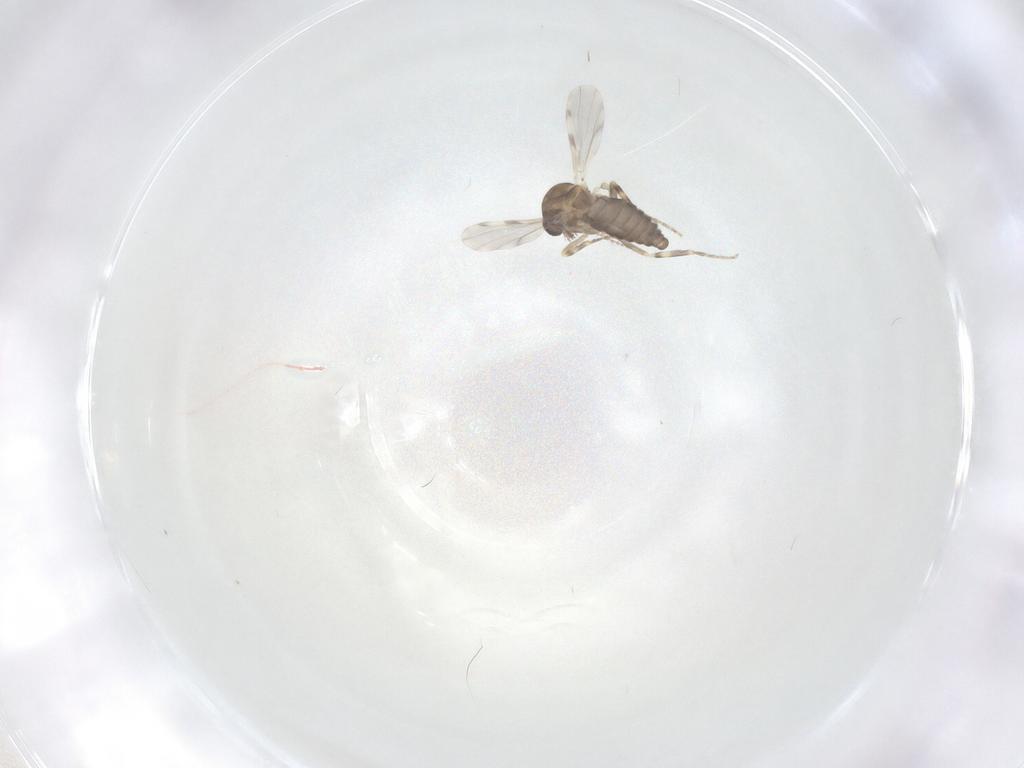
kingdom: Animalia
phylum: Arthropoda
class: Insecta
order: Diptera
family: Ceratopogonidae
